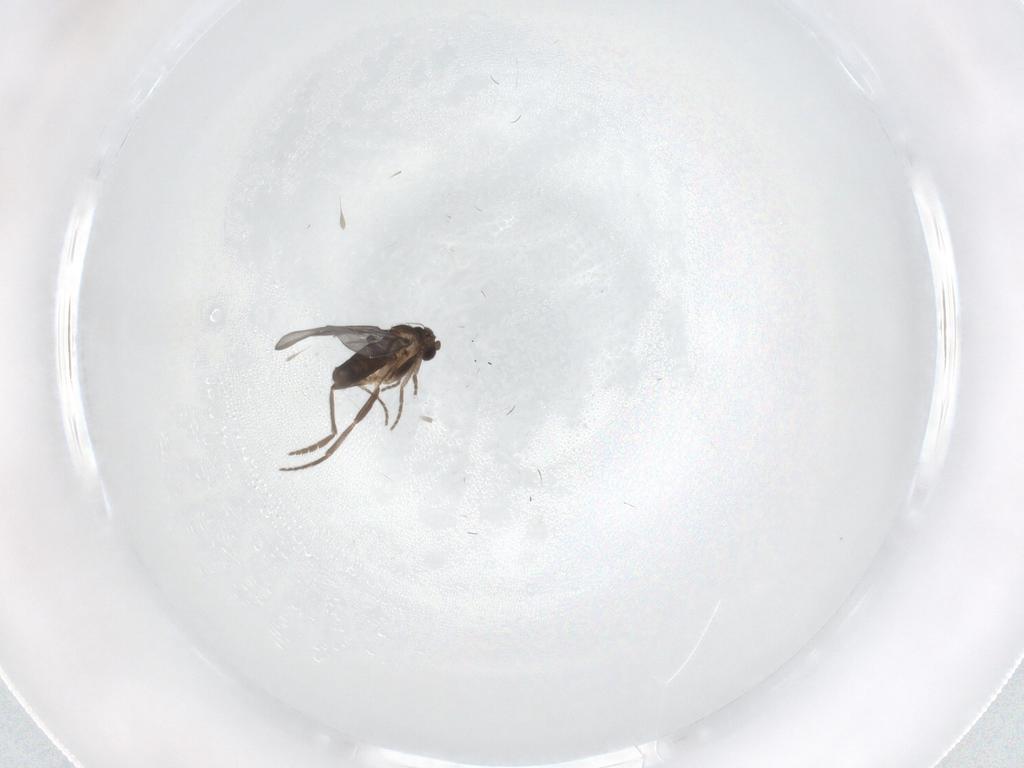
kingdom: Animalia
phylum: Arthropoda
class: Insecta
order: Diptera
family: Phoridae
